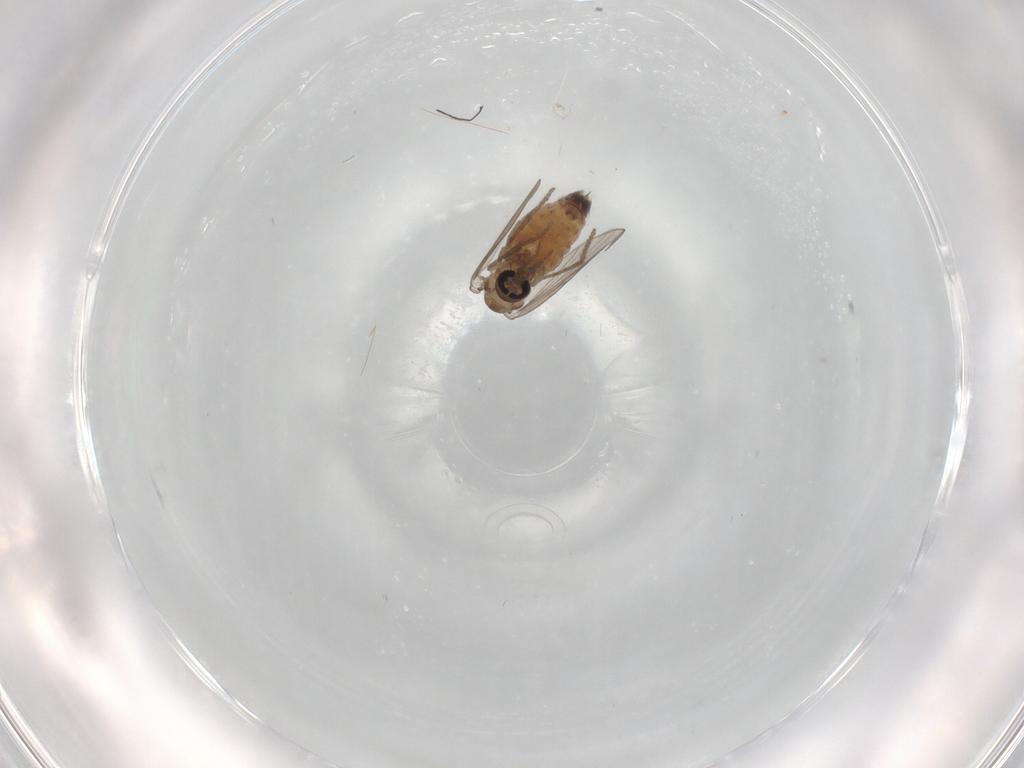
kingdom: Animalia
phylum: Arthropoda
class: Insecta
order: Diptera
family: Psychodidae
